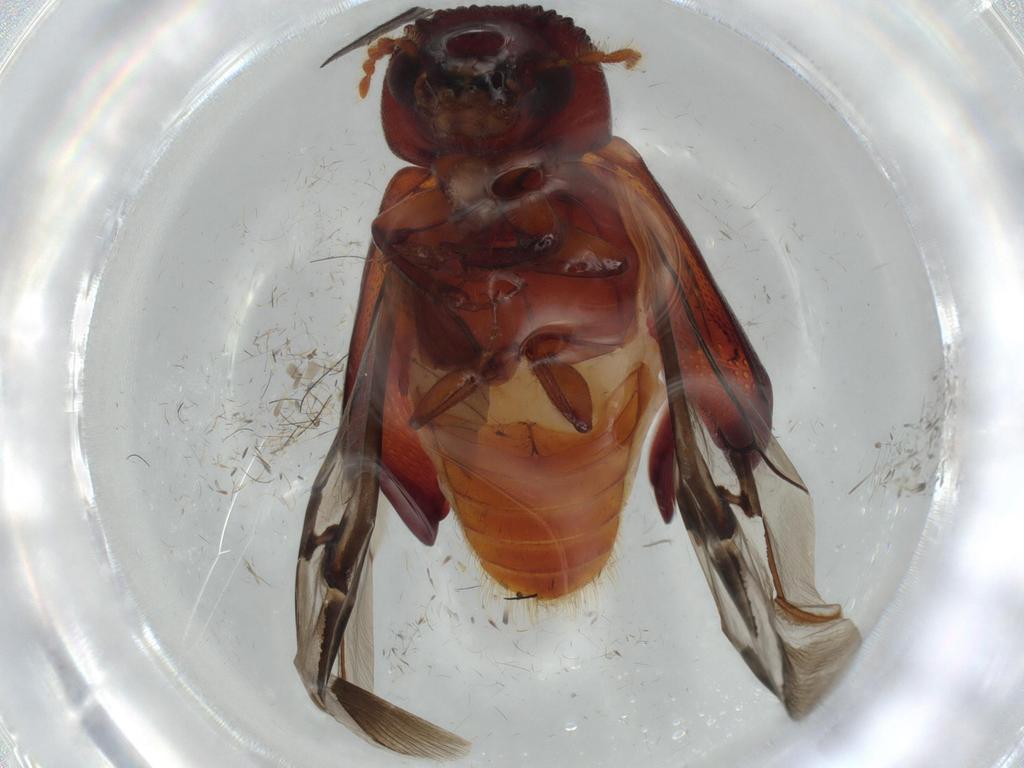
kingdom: Animalia
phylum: Arthropoda
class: Insecta
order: Coleoptera
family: Bostrichidae
